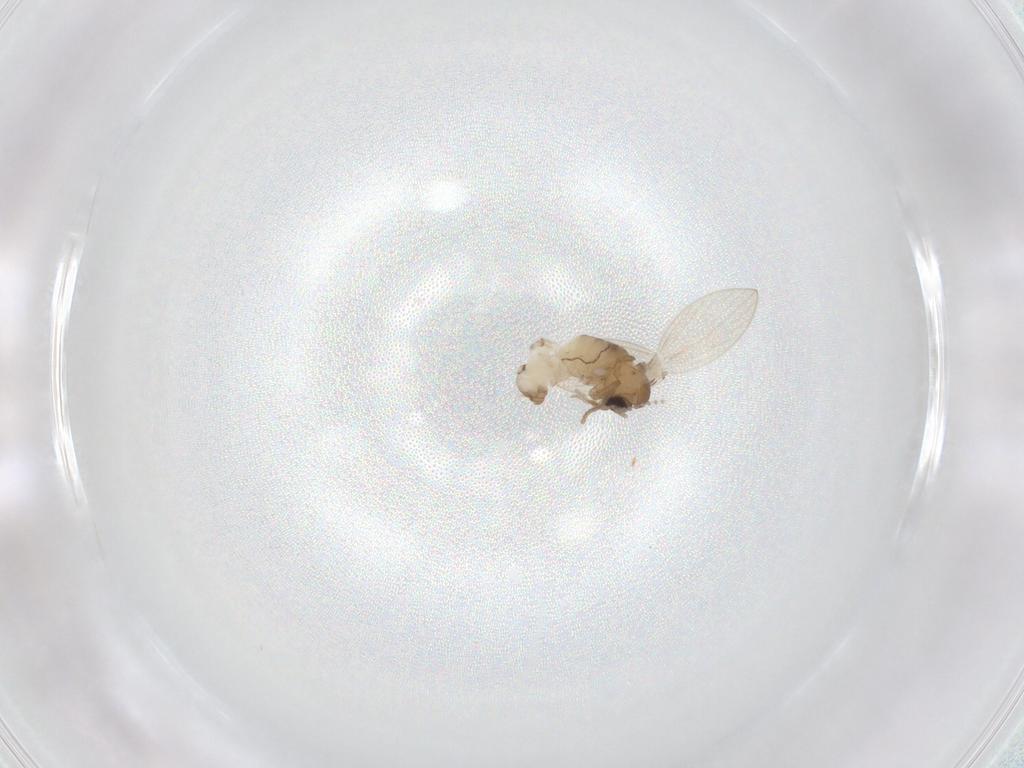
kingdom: Animalia
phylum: Arthropoda
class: Insecta
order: Diptera
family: Psychodidae
